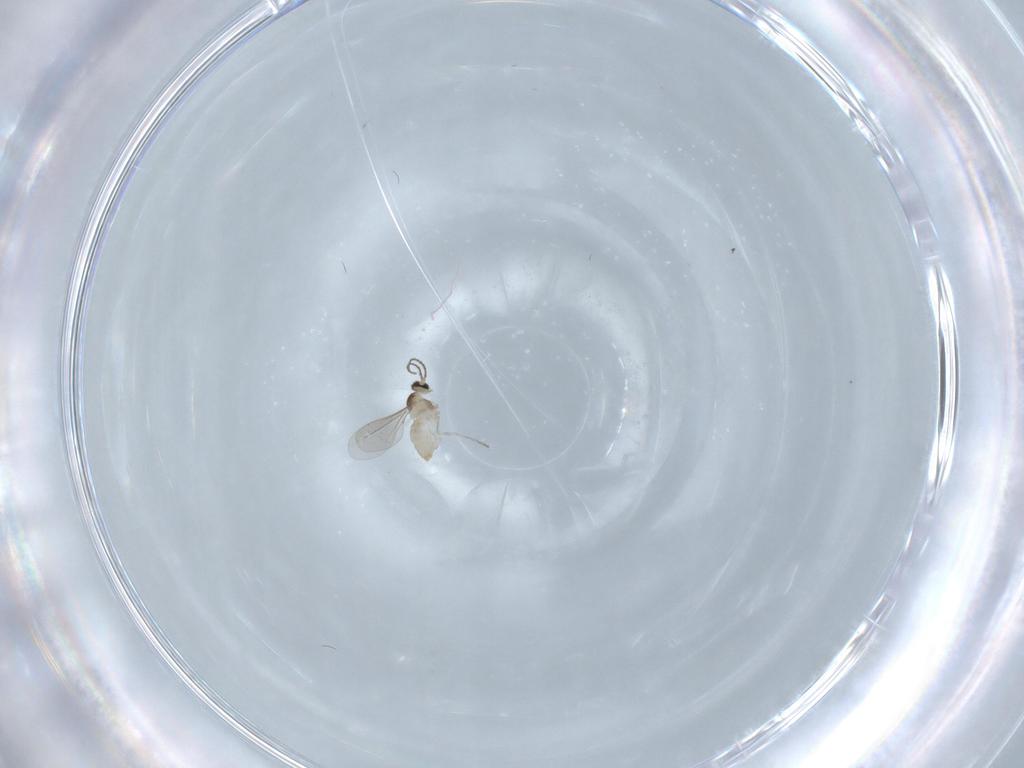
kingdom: Animalia
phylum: Arthropoda
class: Insecta
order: Diptera
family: Cecidomyiidae
